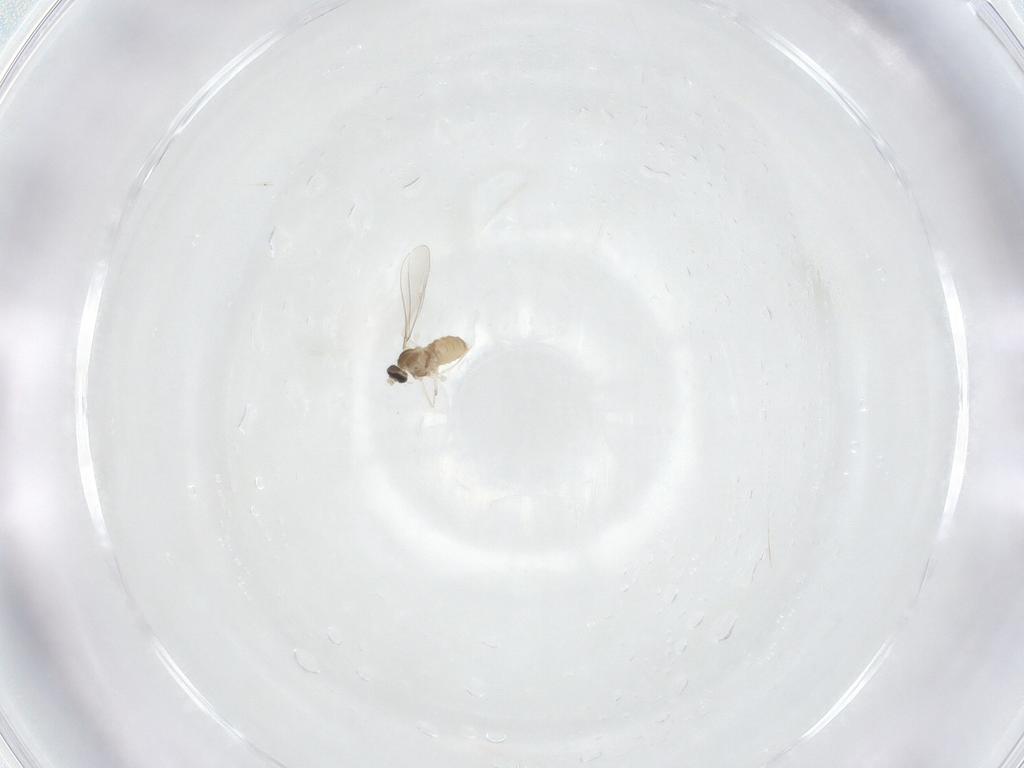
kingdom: Animalia
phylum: Arthropoda
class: Insecta
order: Diptera
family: Cecidomyiidae
